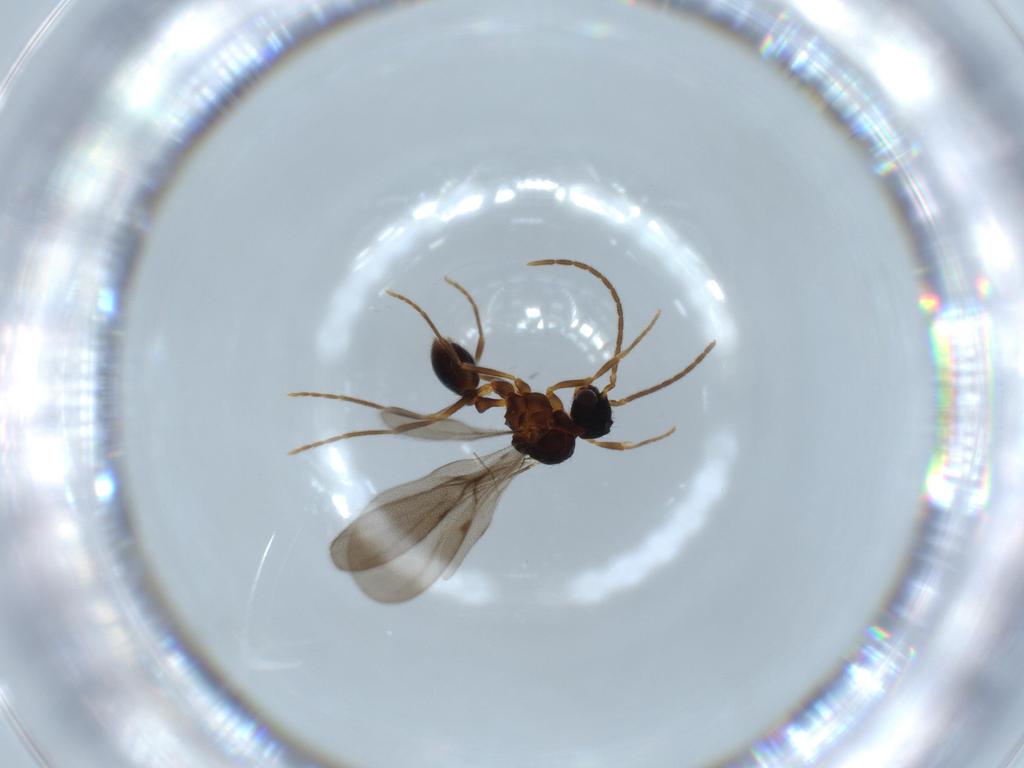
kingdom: Animalia
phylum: Arthropoda
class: Insecta
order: Hymenoptera
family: Formicidae
